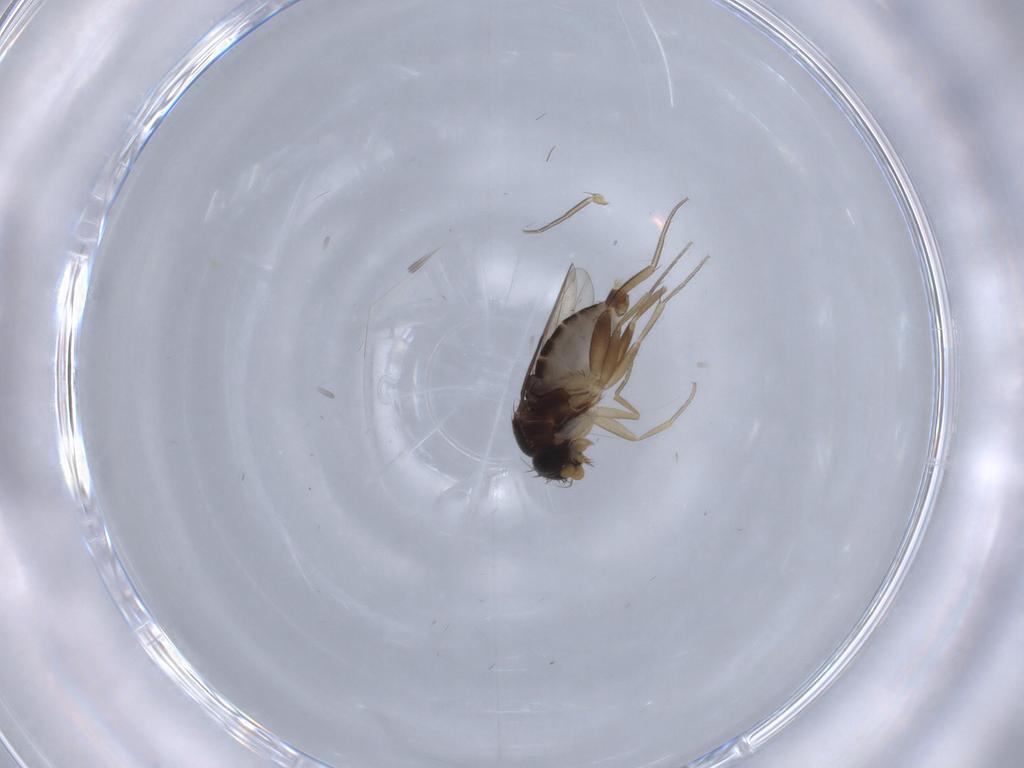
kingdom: Animalia
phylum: Arthropoda
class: Insecta
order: Diptera
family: Phoridae
